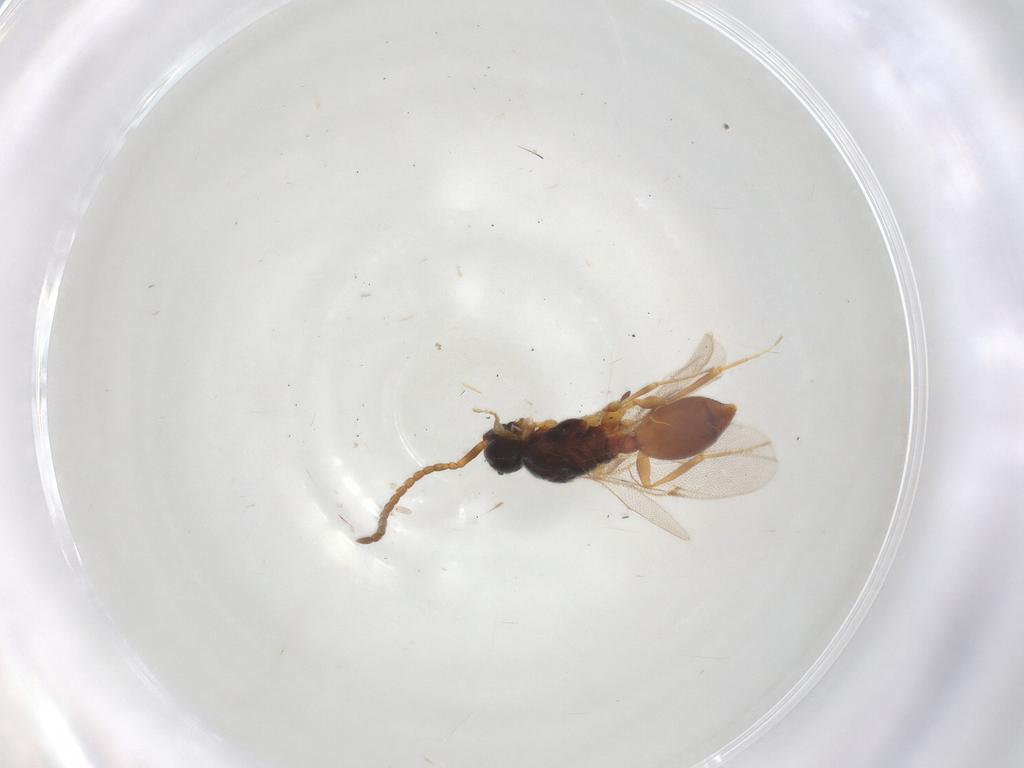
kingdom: Animalia
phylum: Arthropoda
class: Insecta
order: Hymenoptera
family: Diapriidae
